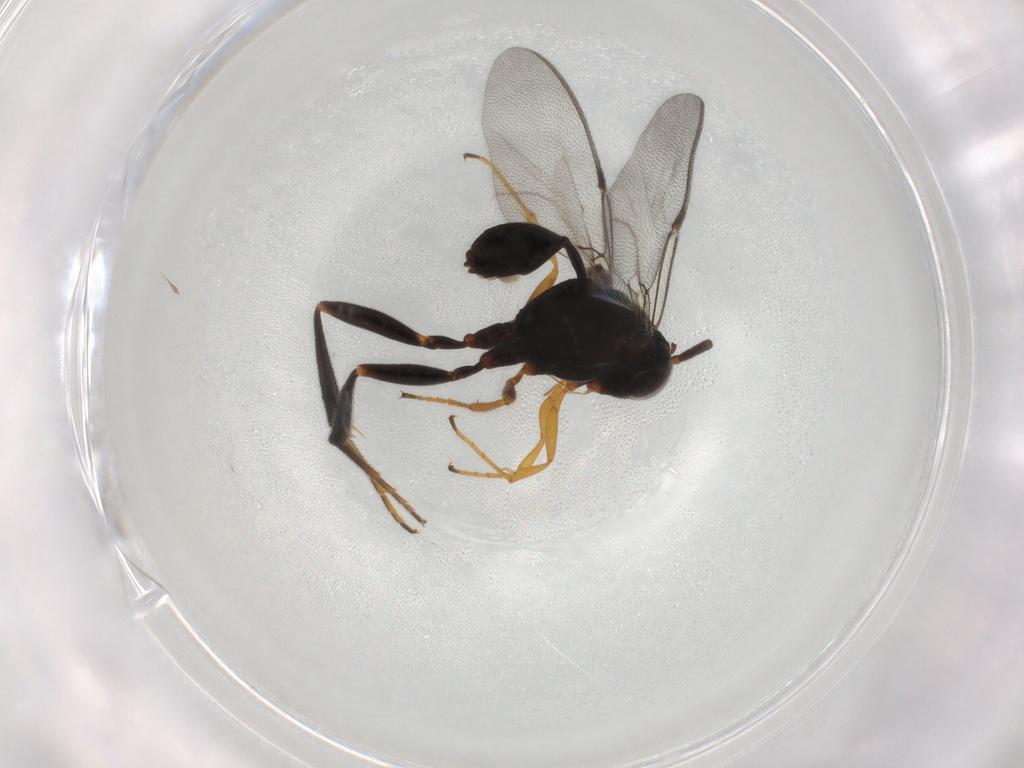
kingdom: Animalia
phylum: Arthropoda
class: Insecta
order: Hymenoptera
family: Evaniidae
